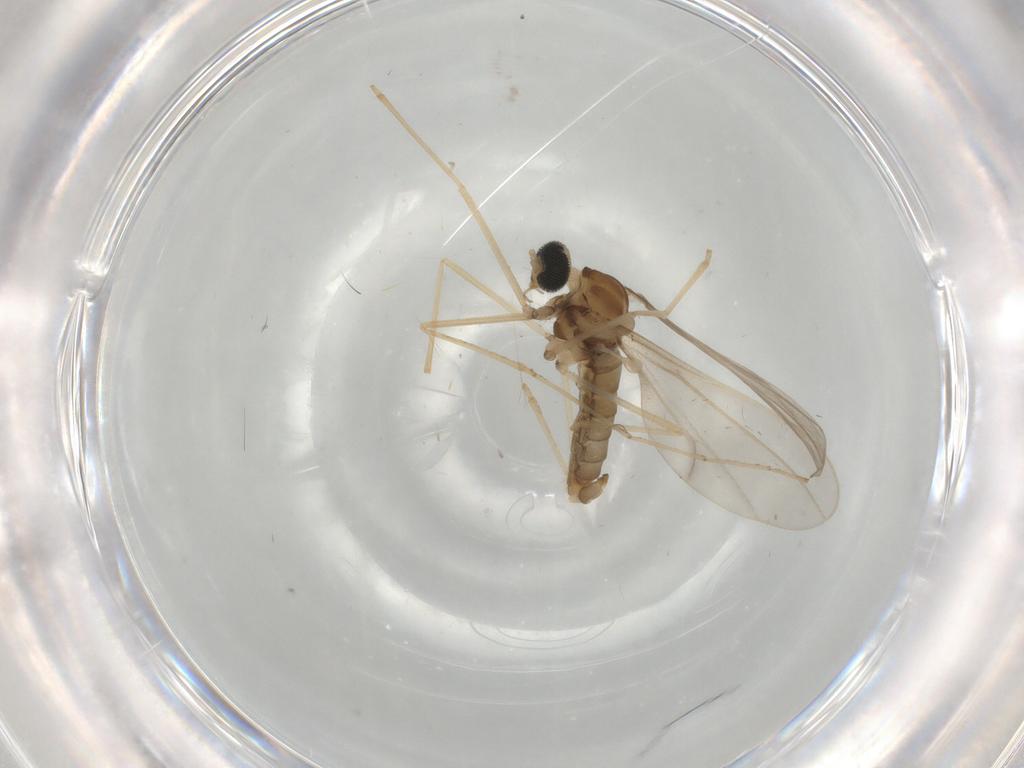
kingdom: Animalia
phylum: Arthropoda
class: Insecta
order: Diptera
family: Cecidomyiidae
